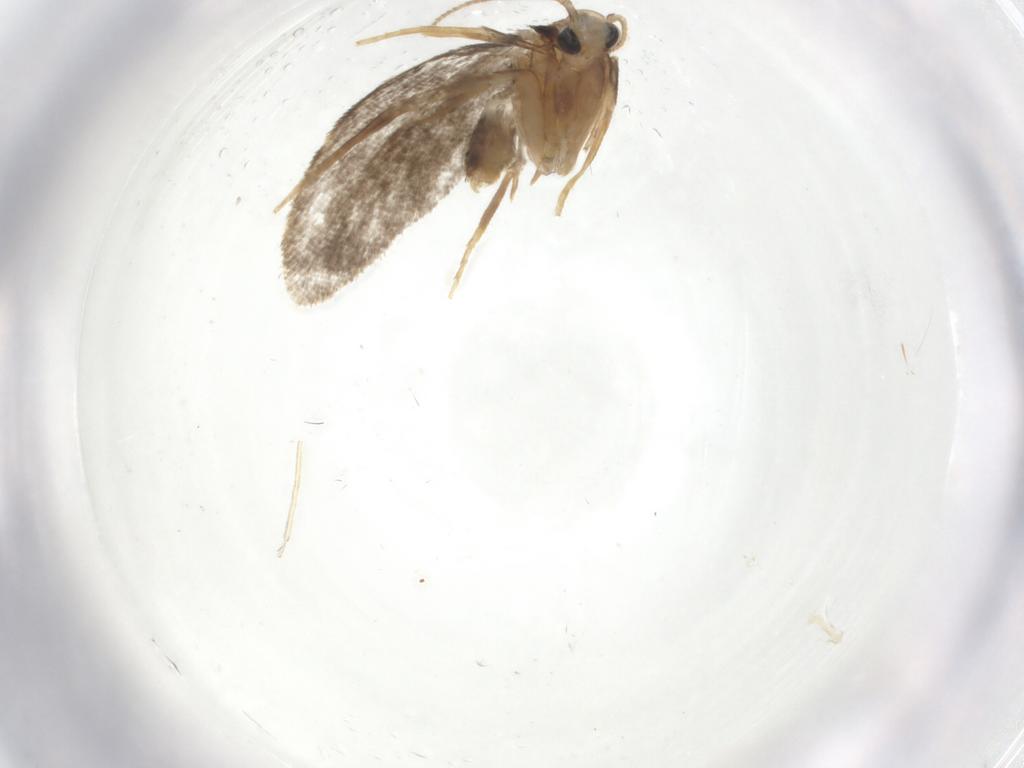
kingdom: Animalia
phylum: Arthropoda
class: Insecta
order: Lepidoptera
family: Psychidae
